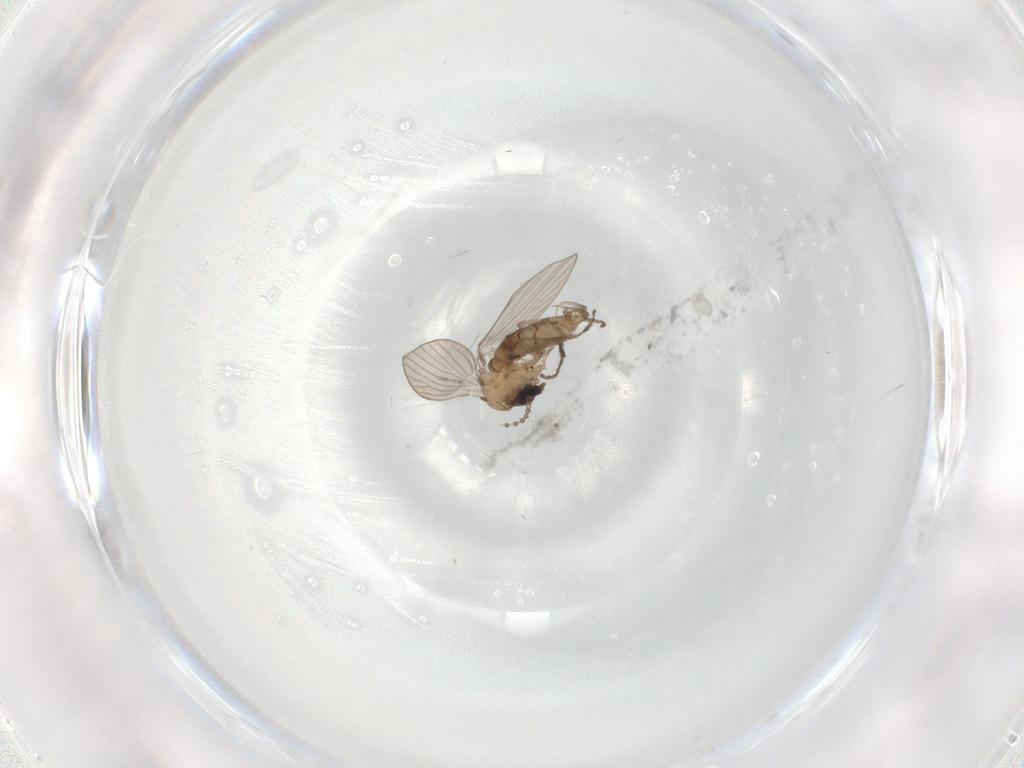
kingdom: Animalia
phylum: Arthropoda
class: Insecta
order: Diptera
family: Psychodidae
